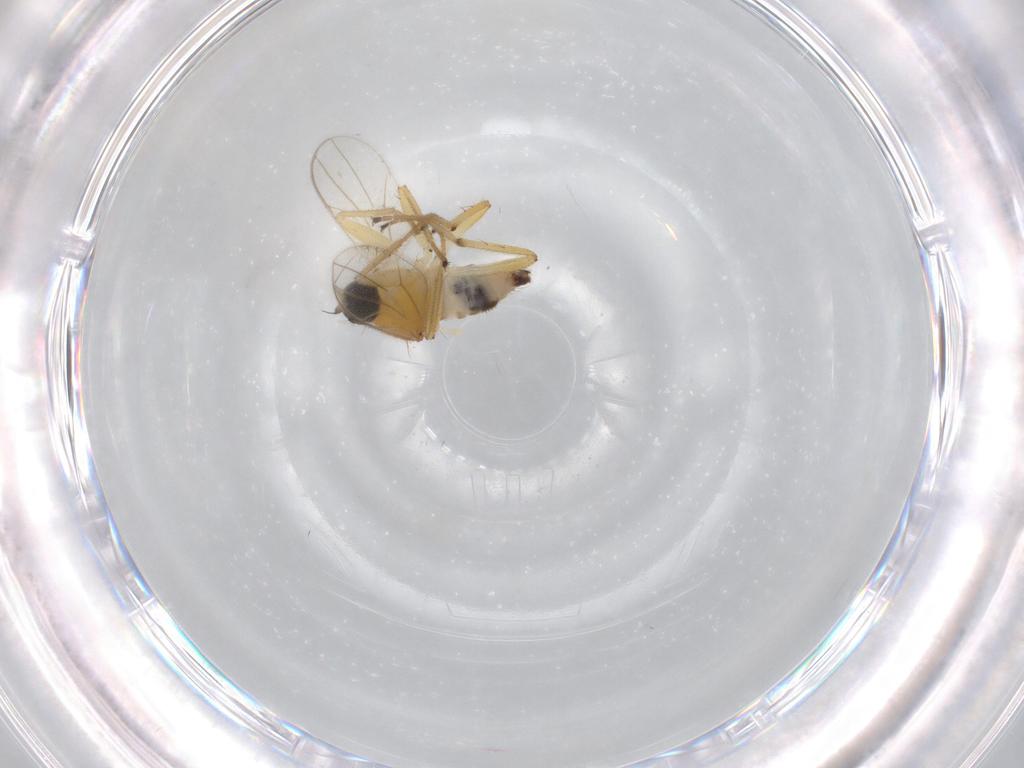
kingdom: Animalia
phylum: Arthropoda
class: Insecta
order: Diptera
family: Hybotidae
